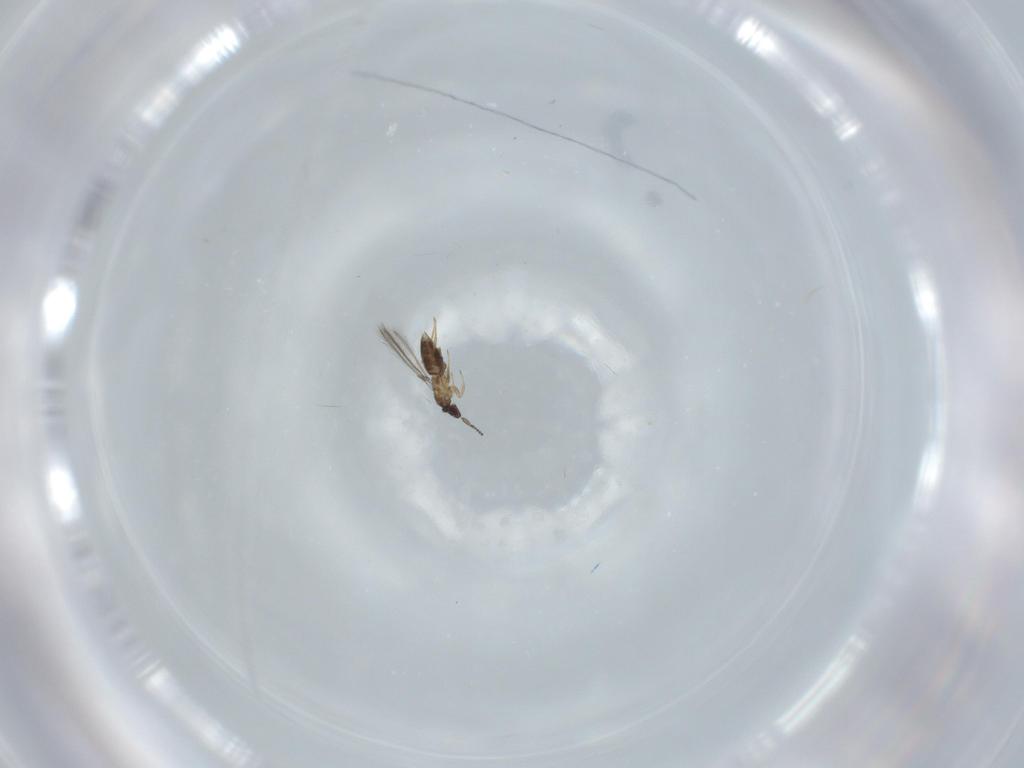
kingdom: Animalia
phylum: Arthropoda
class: Insecta
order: Hymenoptera
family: Mymaridae
